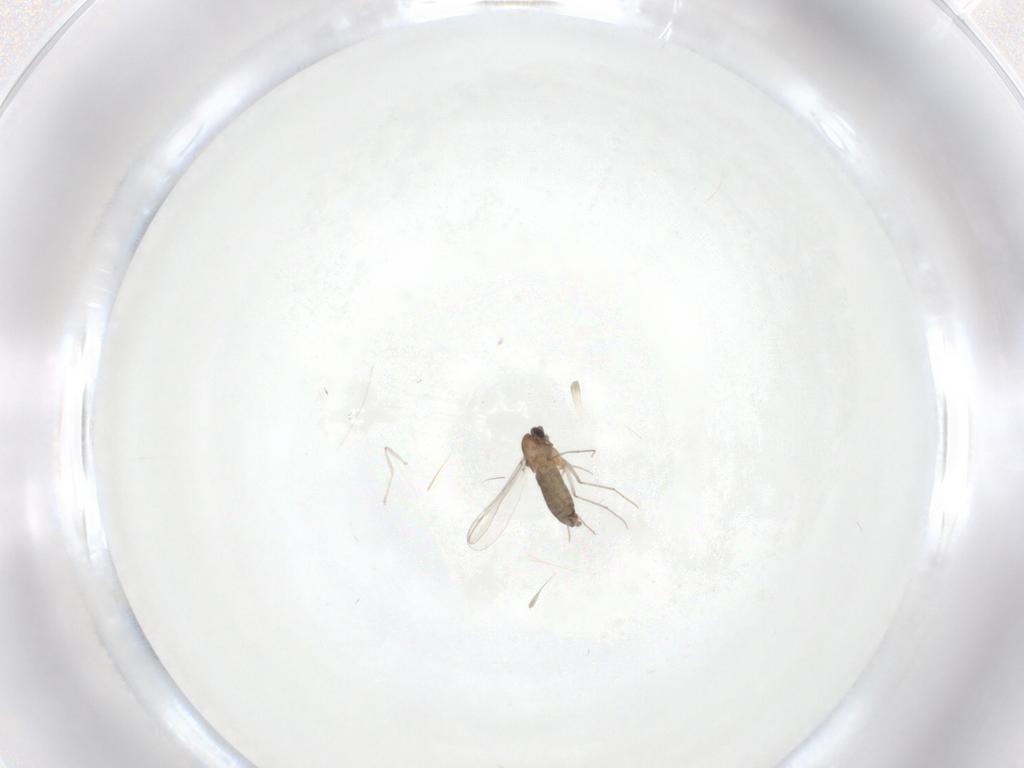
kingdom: Animalia
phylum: Arthropoda
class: Insecta
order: Diptera
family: Chironomidae
